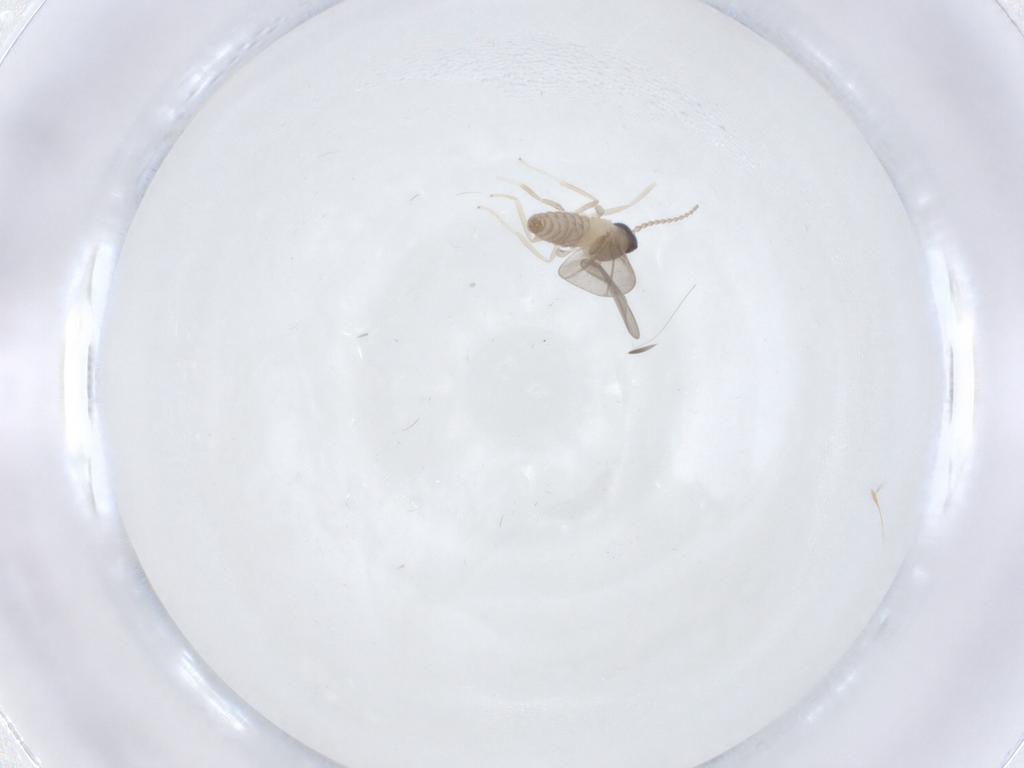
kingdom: Animalia
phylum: Arthropoda
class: Insecta
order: Diptera
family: Cecidomyiidae
